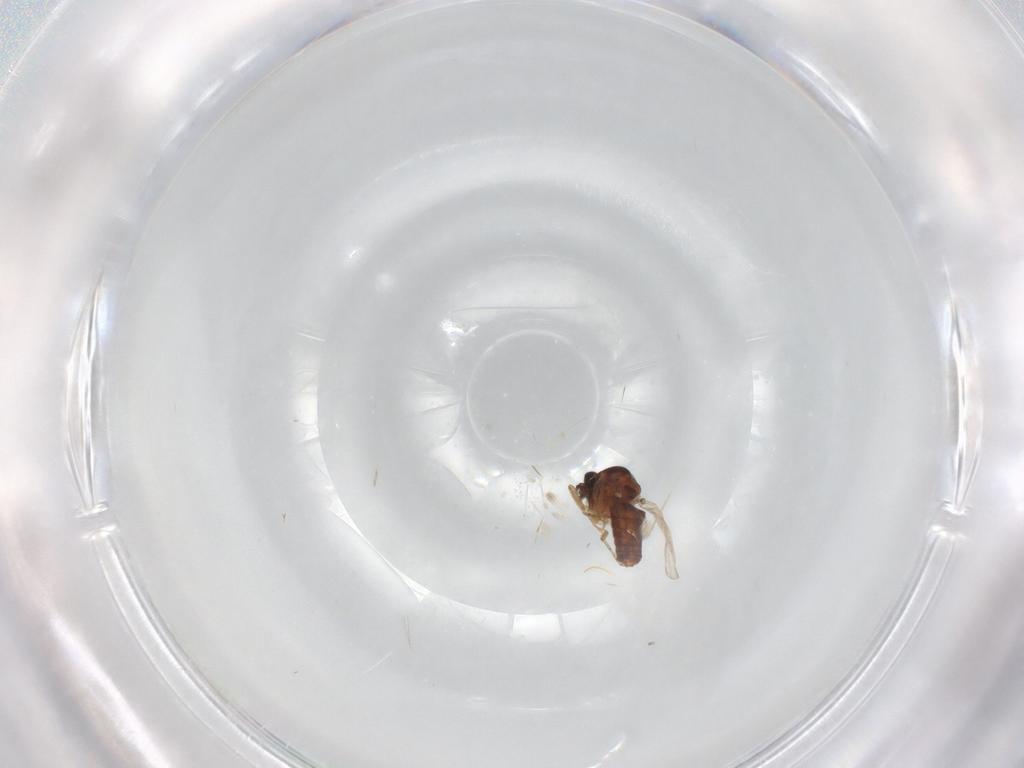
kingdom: Animalia
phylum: Arthropoda
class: Insecta
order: Diptera
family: Ceratopogonidae
